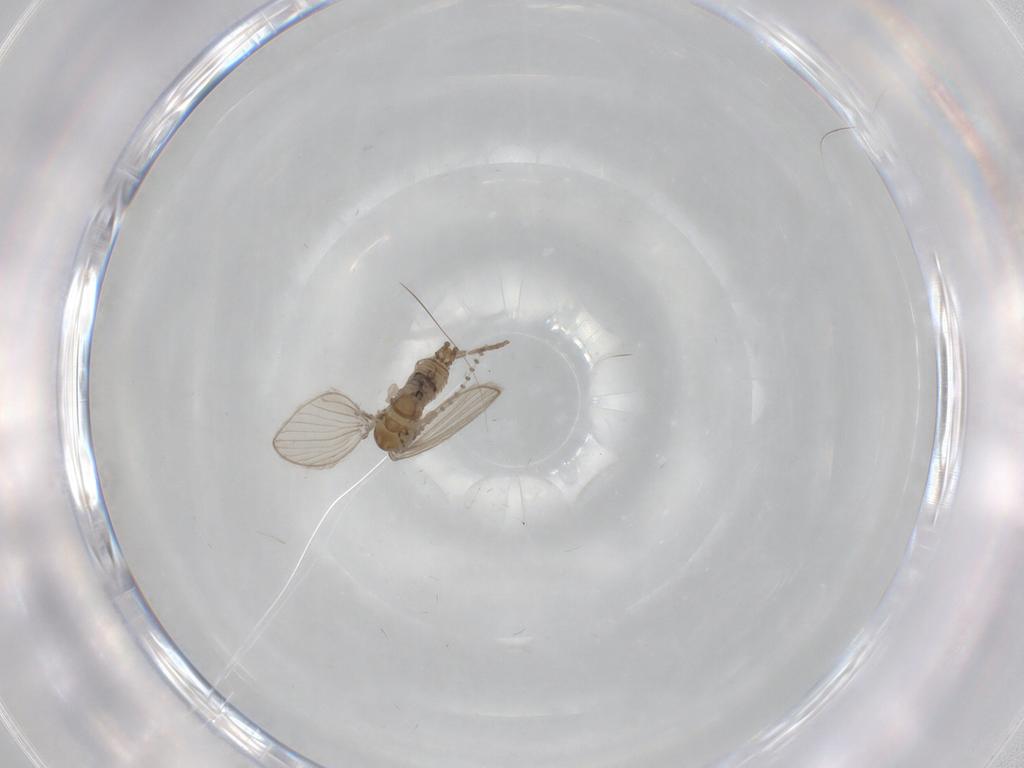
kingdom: Animalia
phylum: Arthropoda
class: Insecta
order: Diptera
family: Psychodidae
